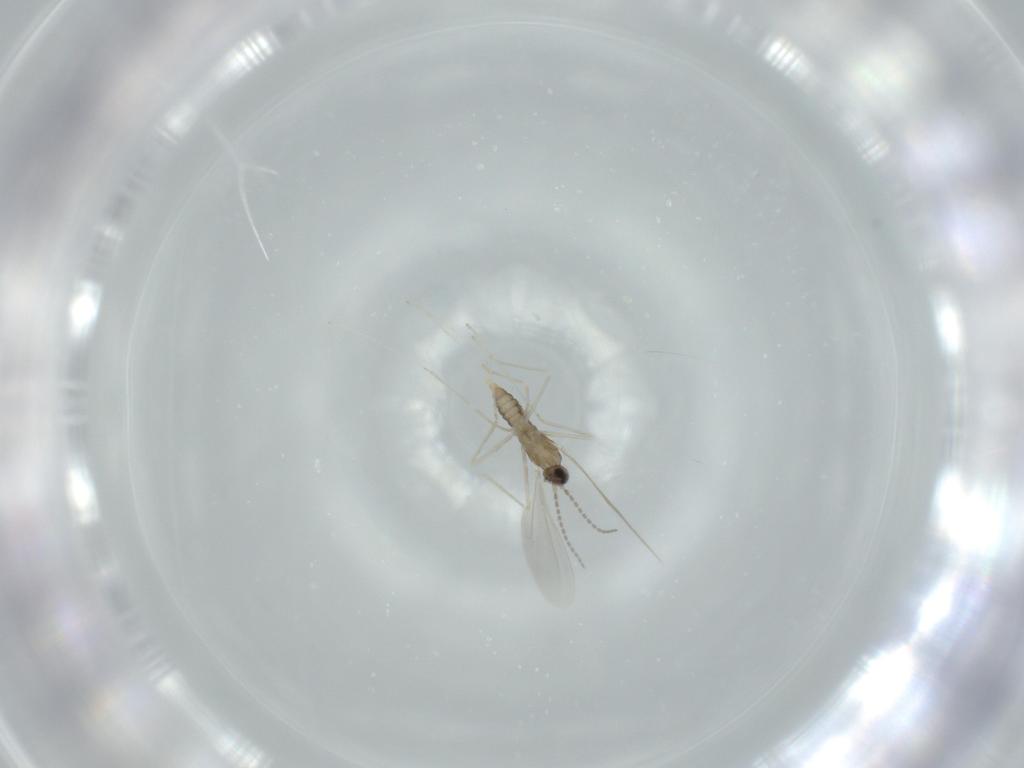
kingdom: Animalia
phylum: Arthropoda
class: Insecta
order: Diptera
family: Cecidomyiidae
